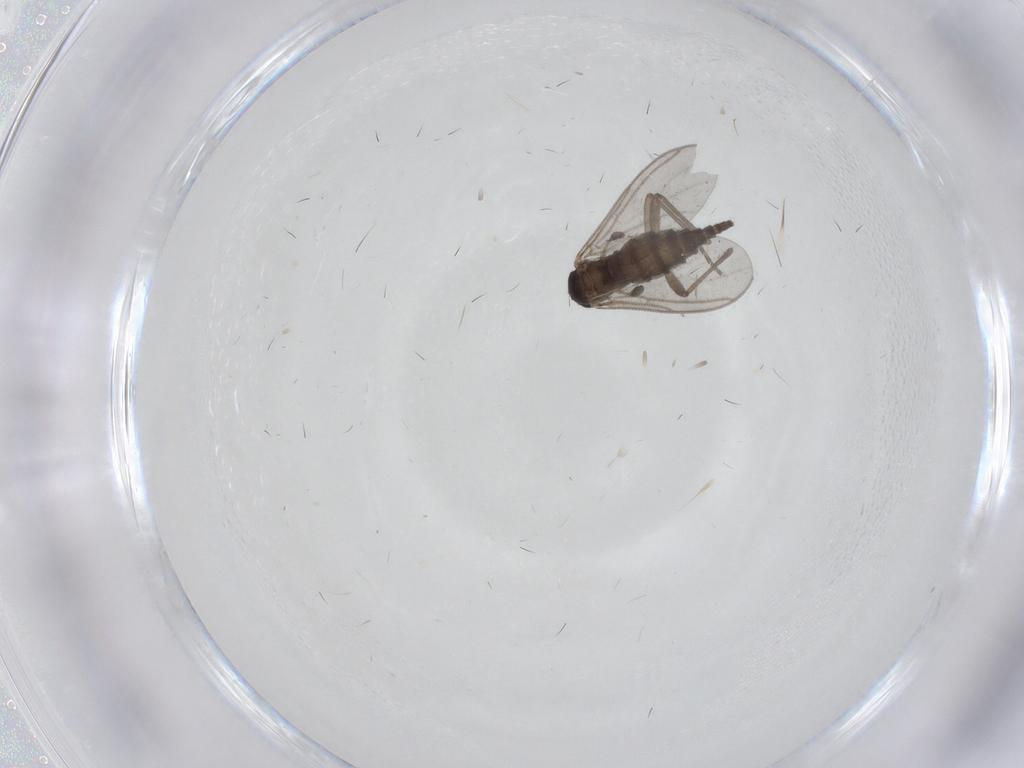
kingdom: Animalia
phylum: Arthropoda
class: Insecta
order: Diptera
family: Sciaridae
